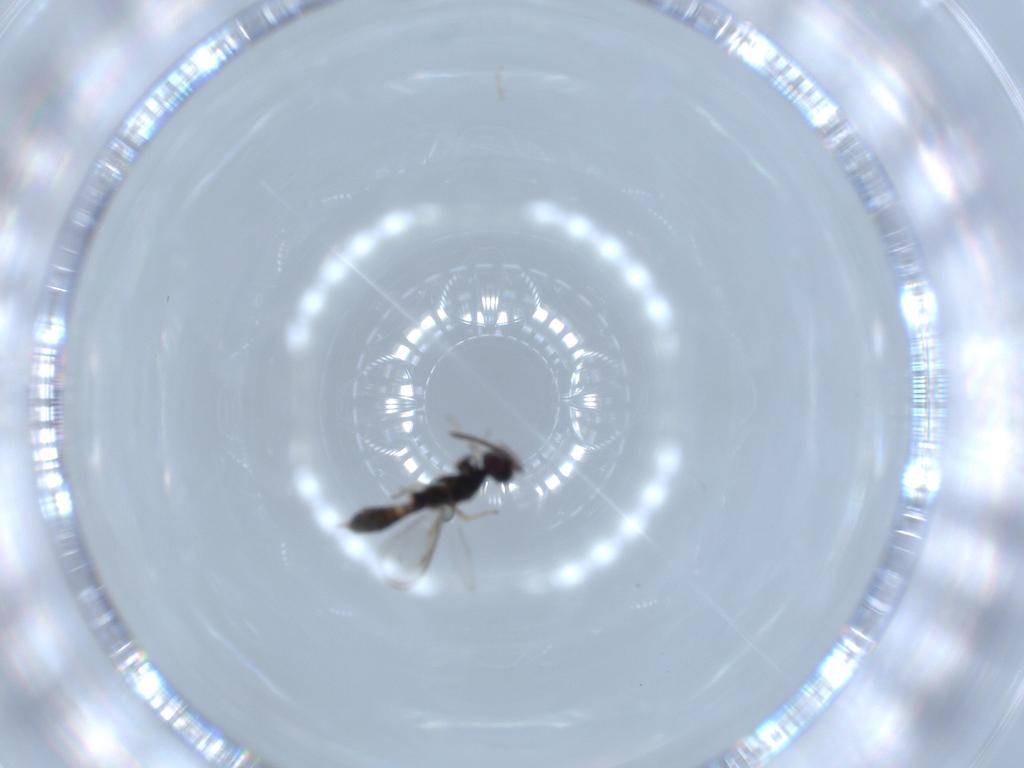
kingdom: Animalia
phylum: Arthropoda
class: Insecta
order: Hymenoptera
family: Eupelmidae
